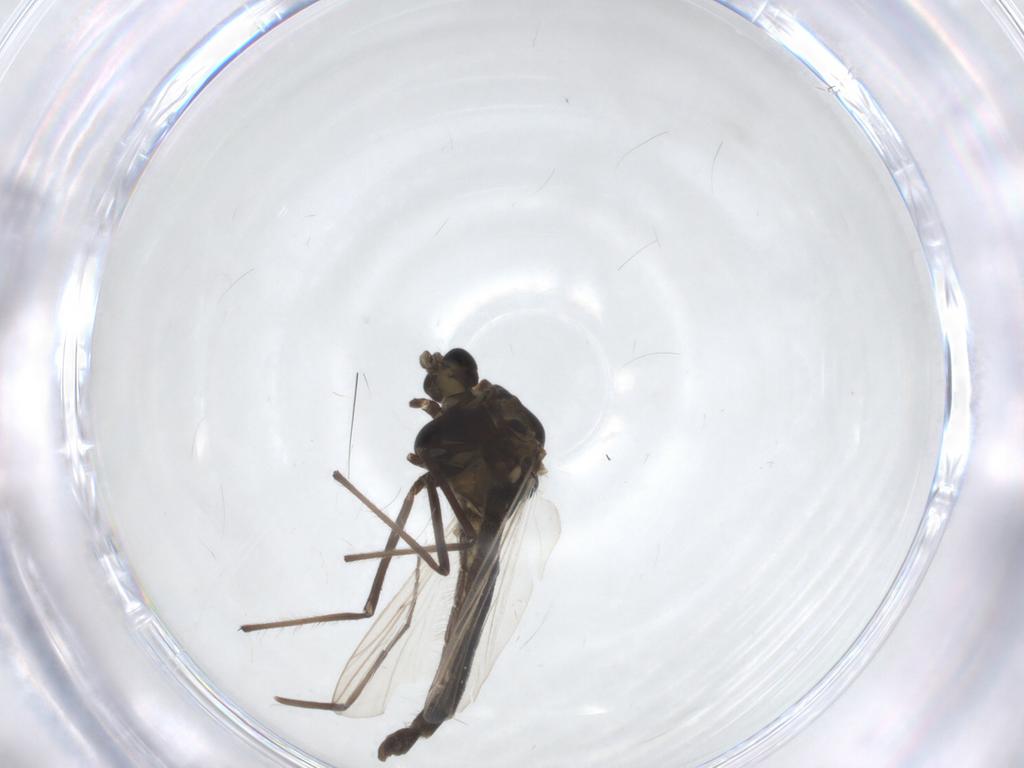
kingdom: Animalia
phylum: Arthropoda
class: Insecta
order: Diptera
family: Chironomidae
